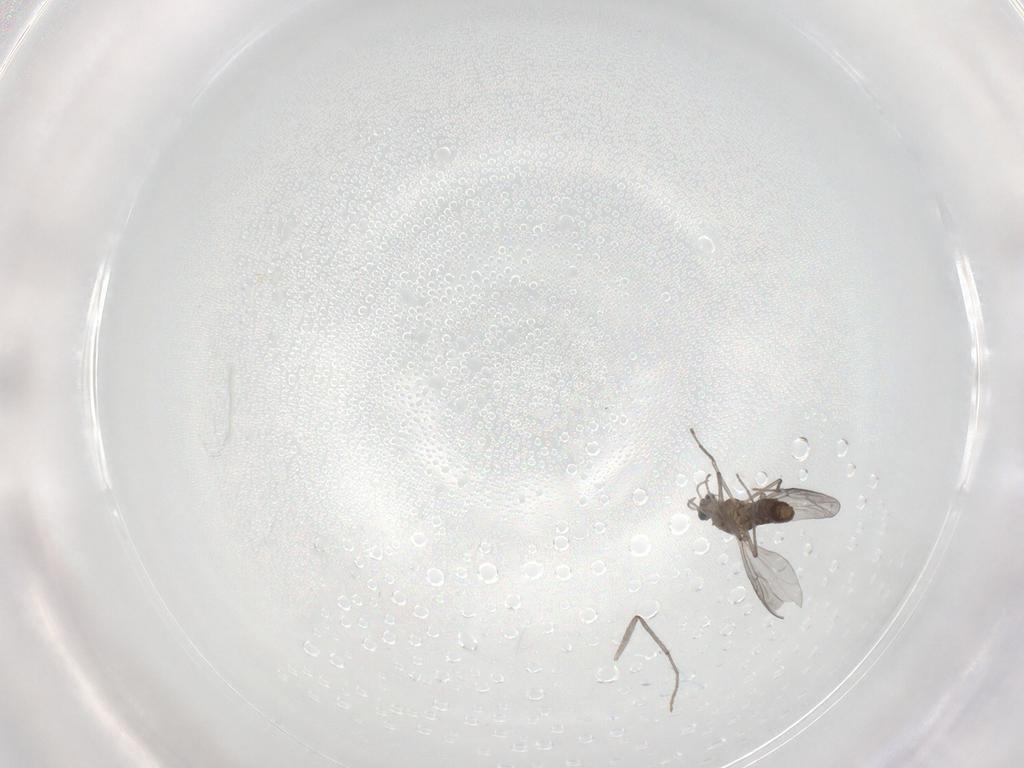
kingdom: Animalia
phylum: Arthropoda
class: Insecta
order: Diptera
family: Chironomidae
